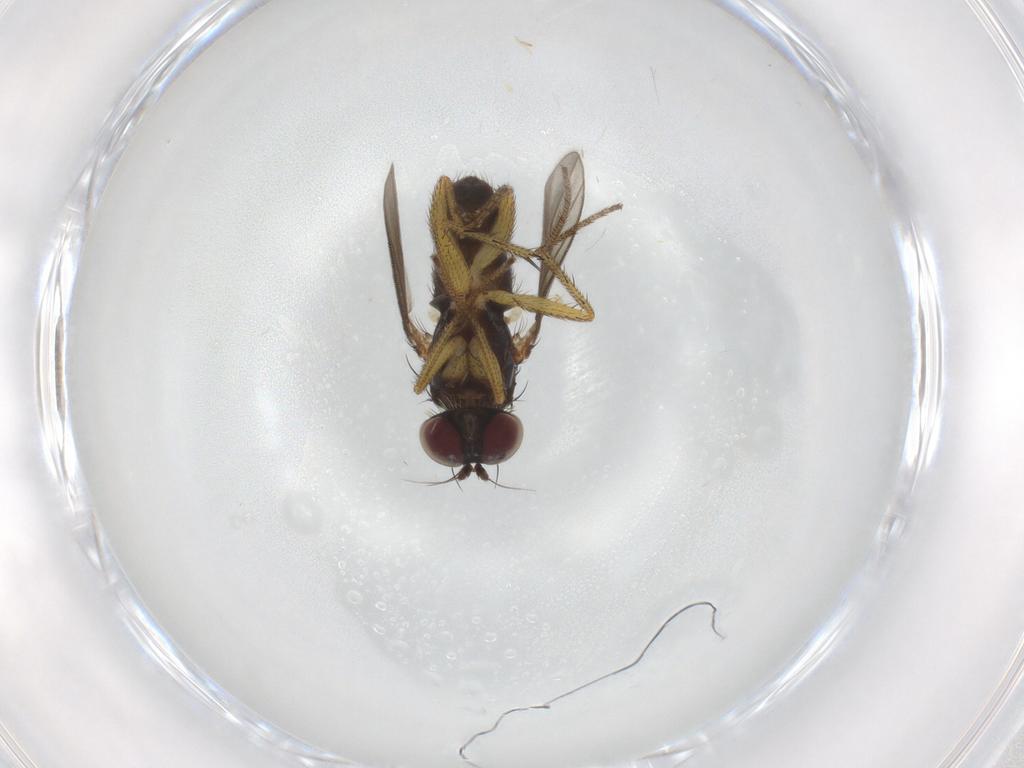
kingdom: Animalia
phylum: Arthropoda
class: Insecta
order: Diptera
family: Dolichopodidae
